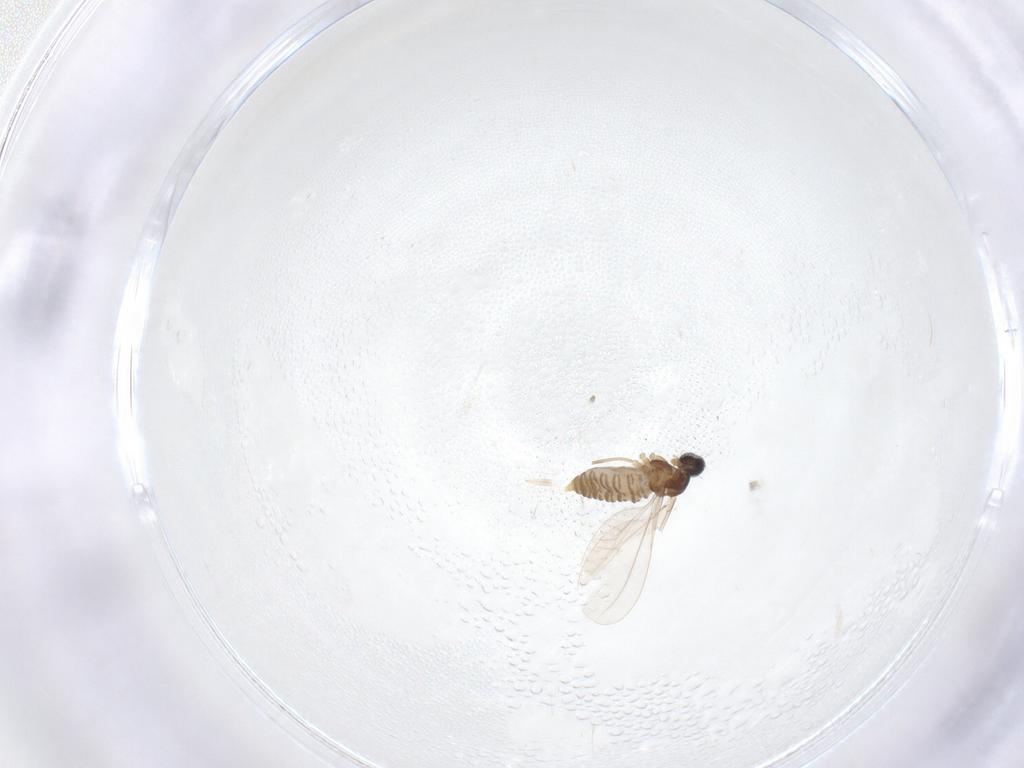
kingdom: Animalia
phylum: Arthropoda
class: Insecta
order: Diptera
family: Cecidomyiidae
